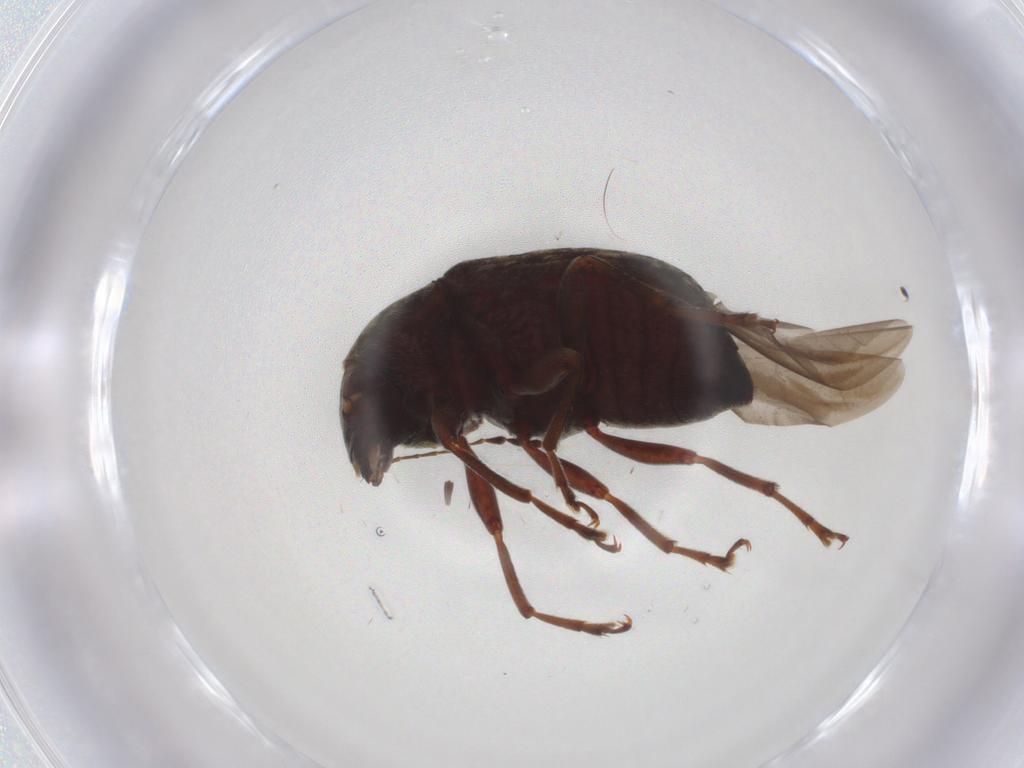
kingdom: Animalia
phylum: Arthropoda
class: Insecta
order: Coleoptera
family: Anthribidae
